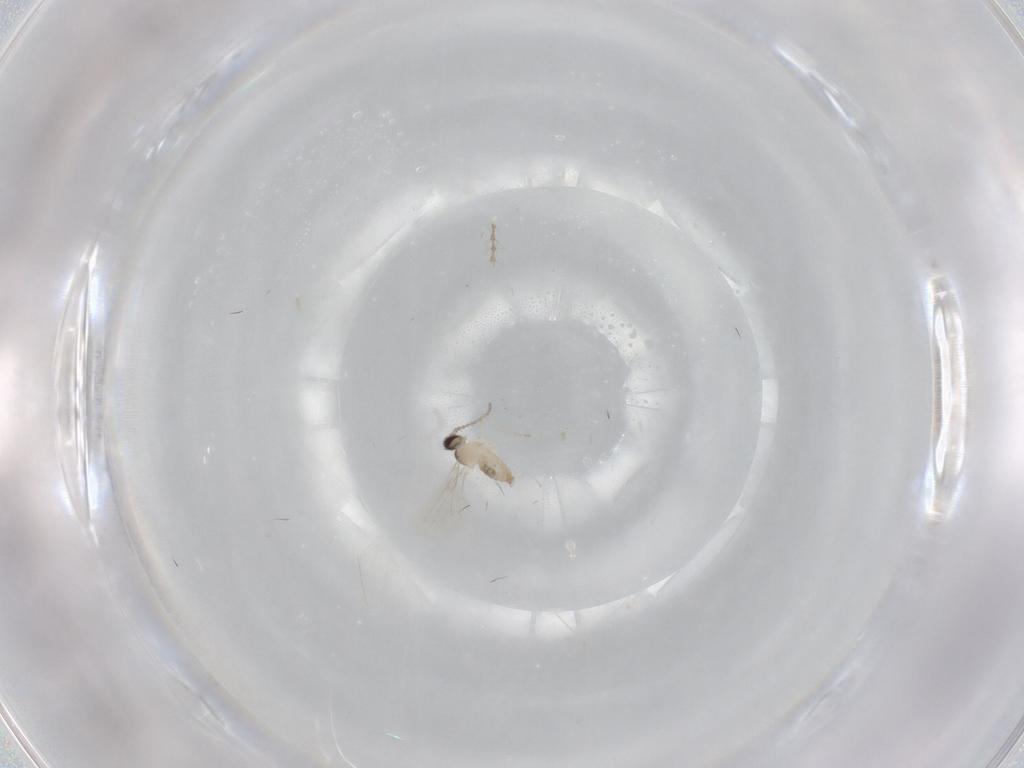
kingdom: Animalia
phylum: Arthropoda
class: Insecta
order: Diptera
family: Cecidomyiidae
